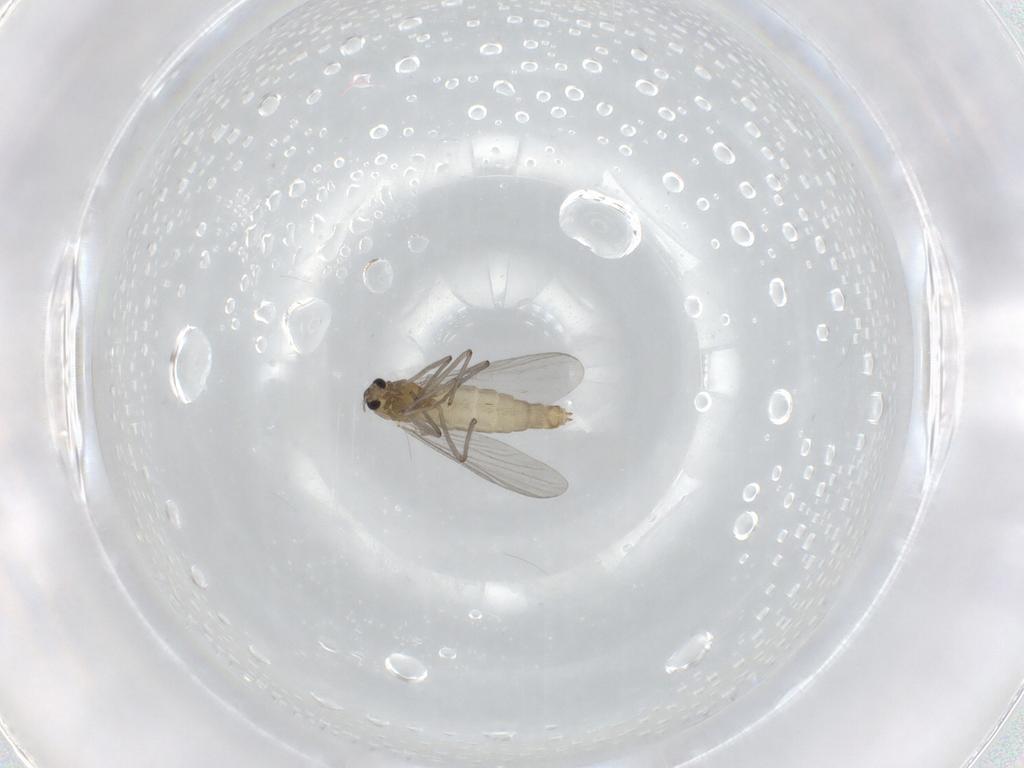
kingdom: Animalia
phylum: Arthropoda
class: Insecta
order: Diptera
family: Chironomidae
